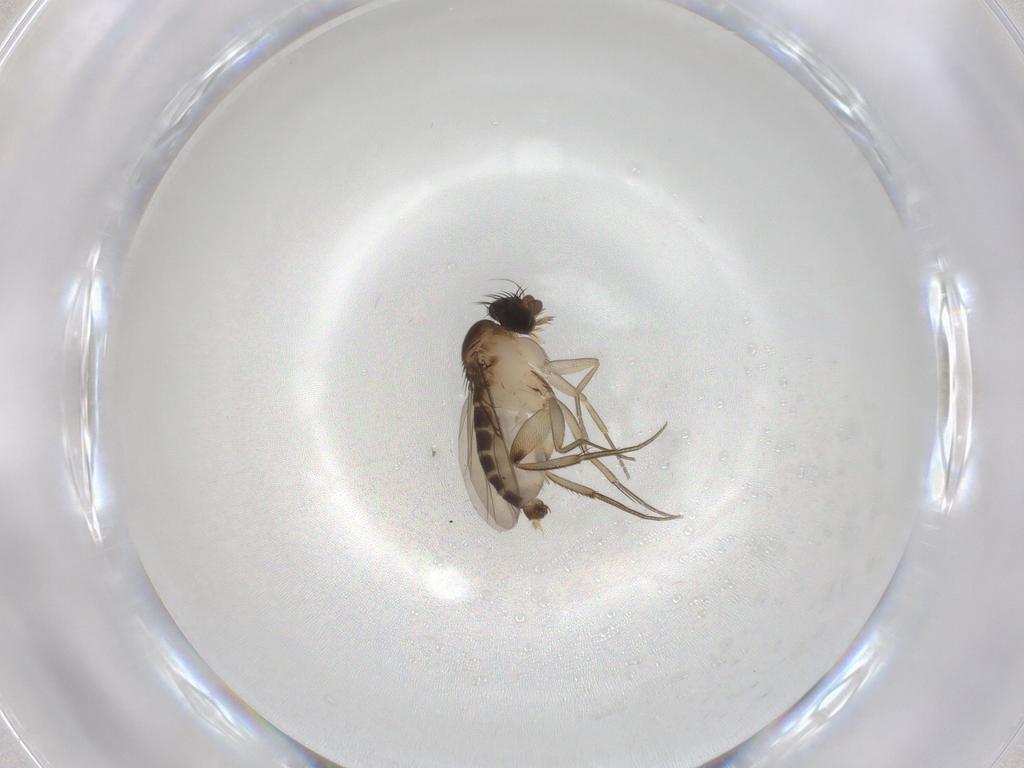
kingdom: Animalia
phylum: Arthropoda
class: Insecta
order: Diptera
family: Phoridae
